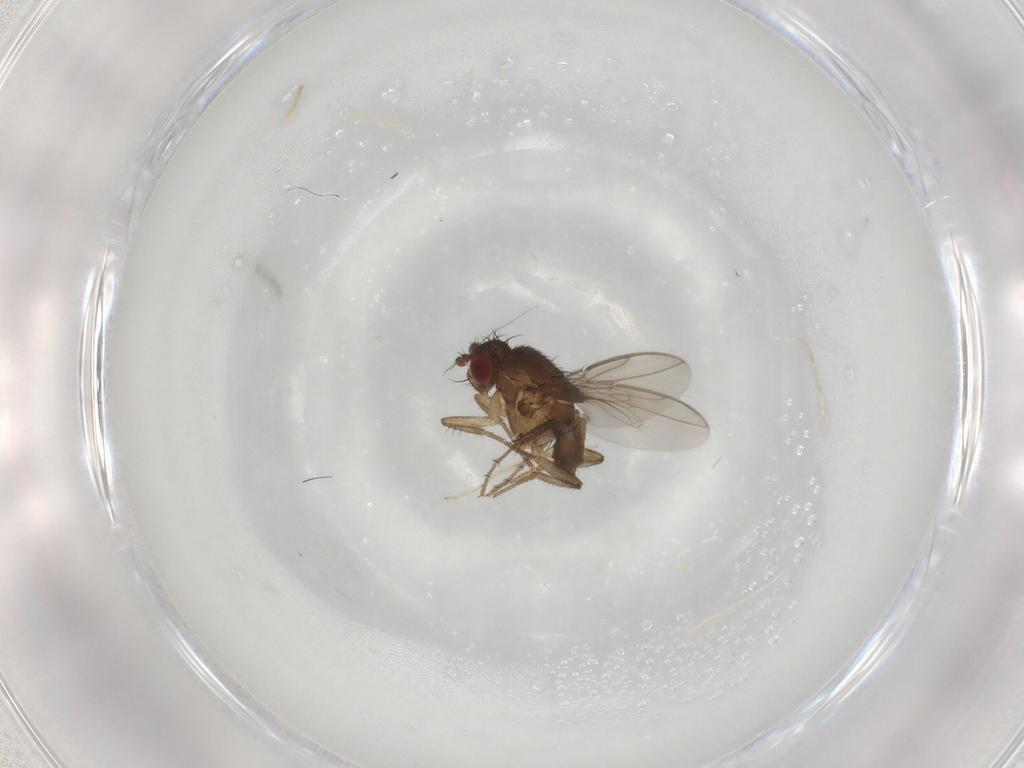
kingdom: Animalia
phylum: Arthropoda
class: Insecta
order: Diptera
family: Sphaeroceridae
